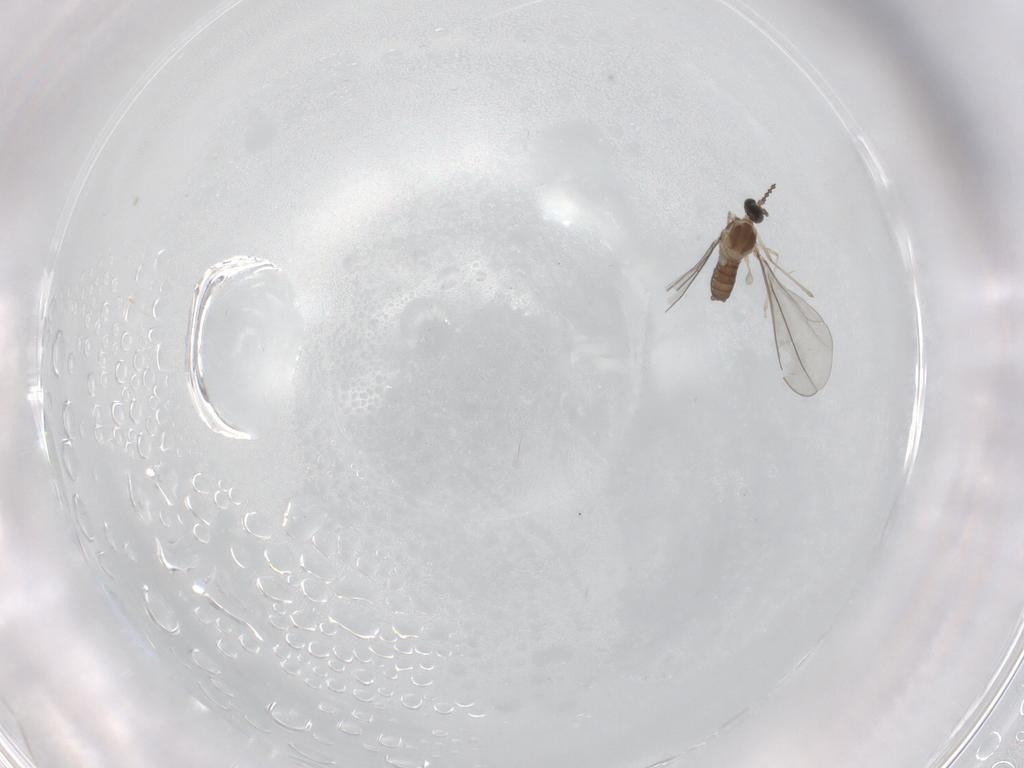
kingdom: Animalia
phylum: Arthropoda
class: Insecta
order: Diptera
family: Cecidomyiidae
